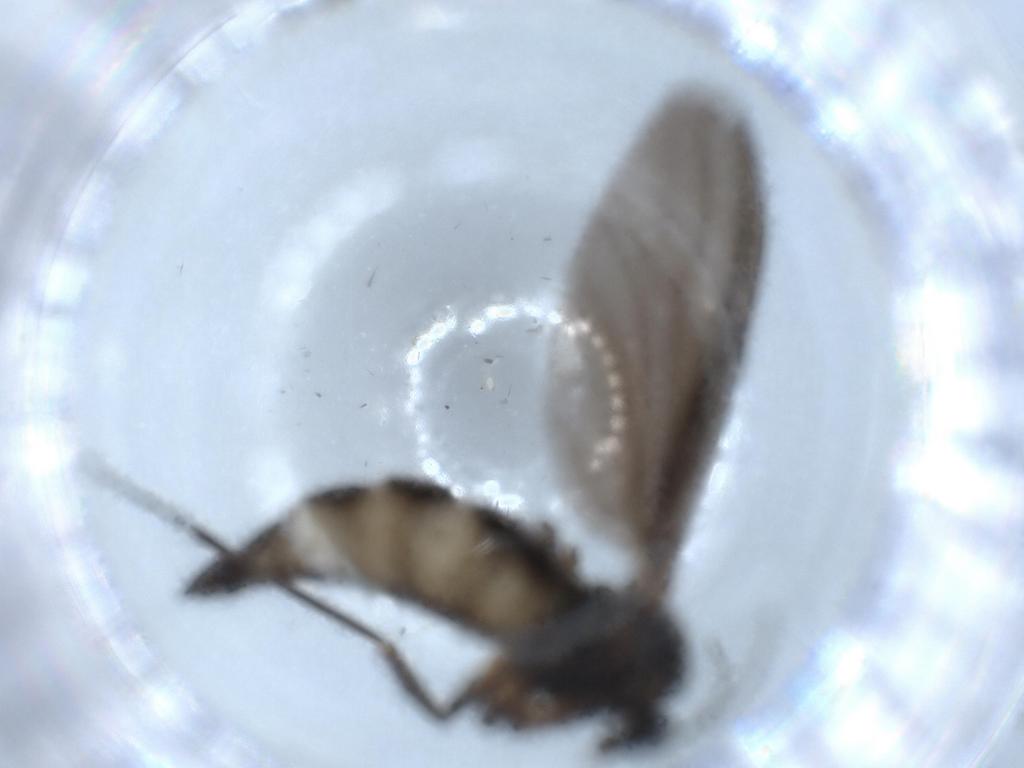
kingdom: Animalia
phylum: Arthropoda
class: Insecta
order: Diptera
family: Sciaridae
